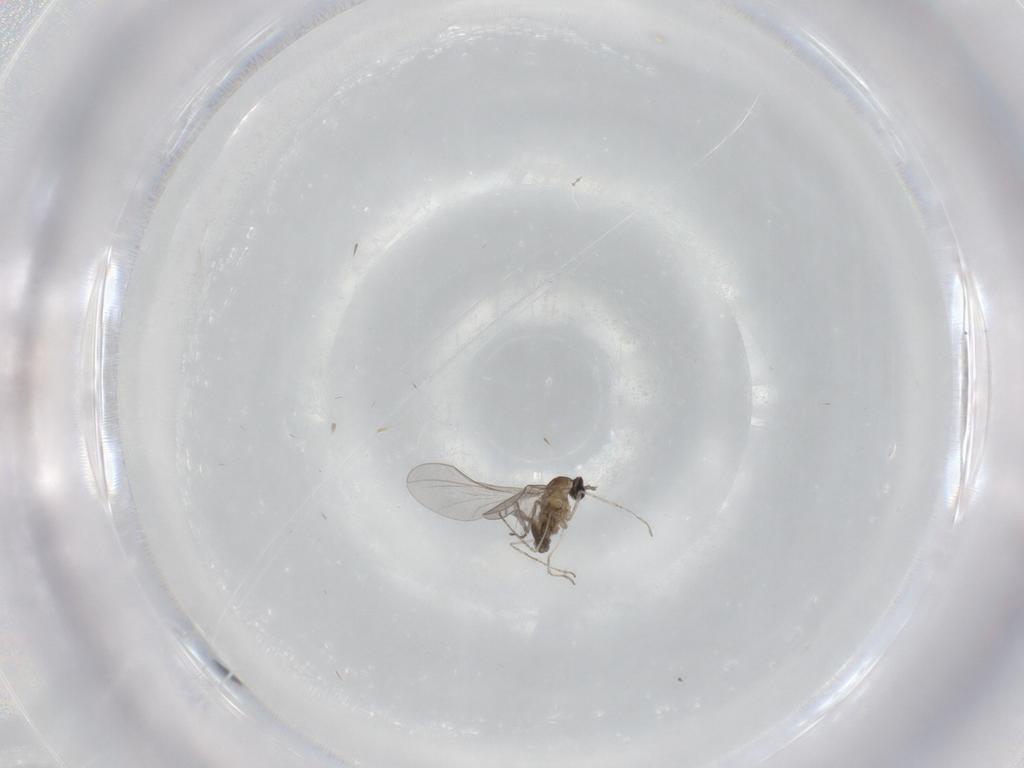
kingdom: Animalia
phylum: Arthropoda
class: Insecta
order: Diptera
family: Cecidomyiidae
